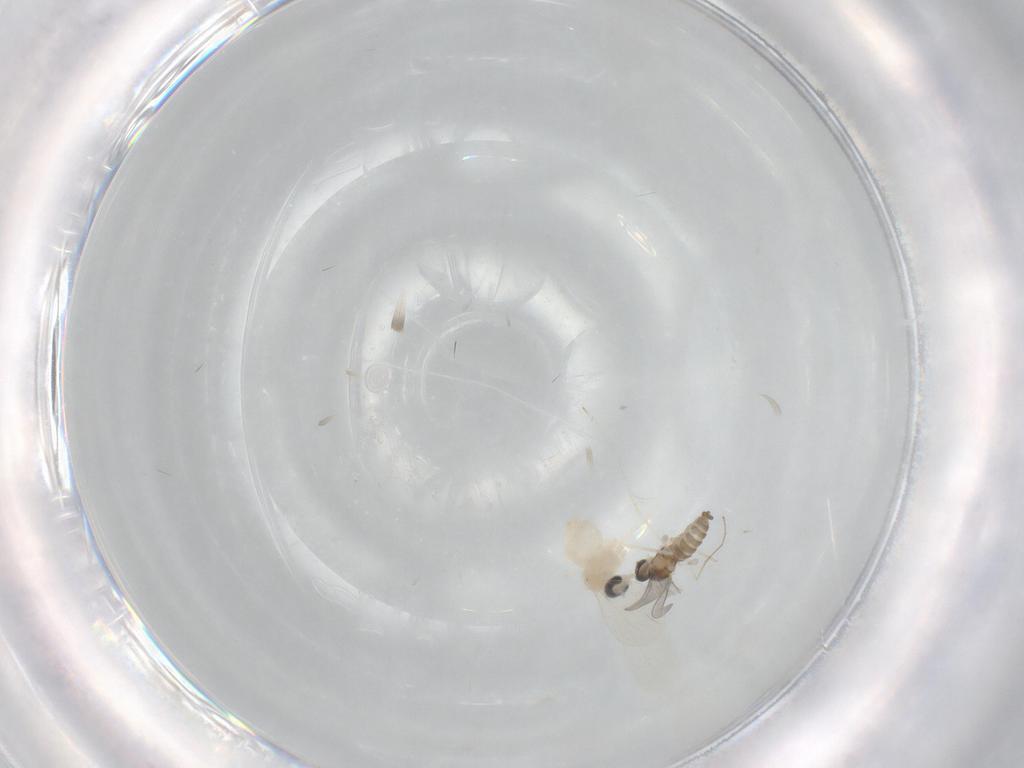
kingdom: Animalia
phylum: Arthropoda
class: Insecta
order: Diptera
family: Cecidomyiidae
